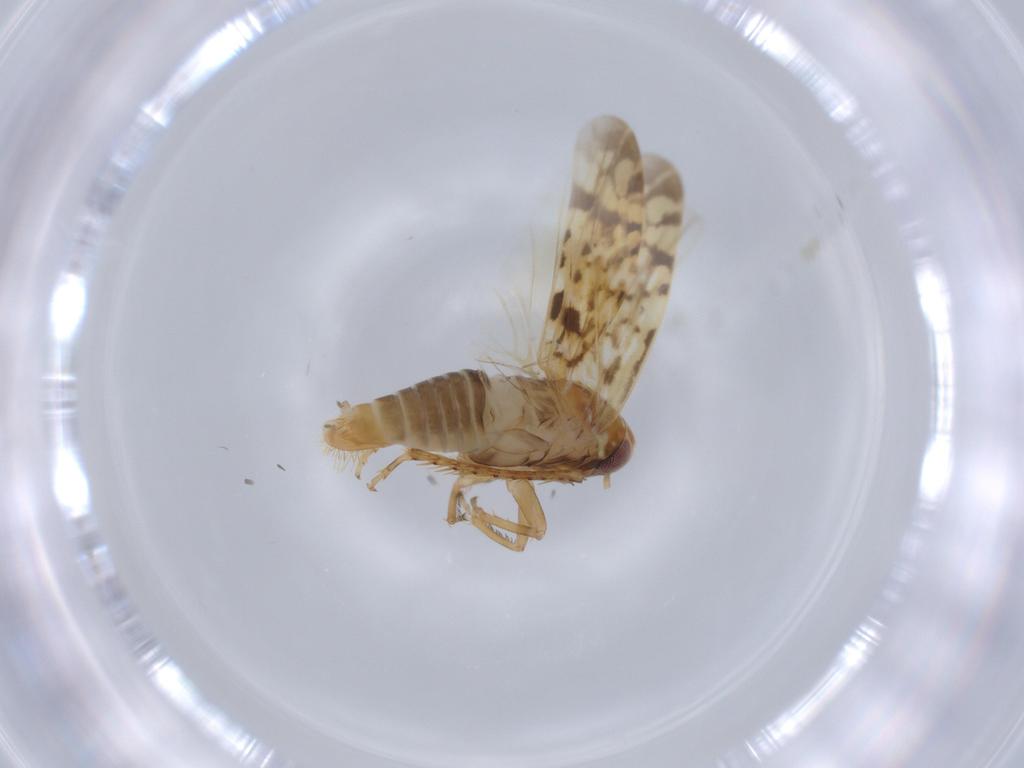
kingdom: Animalia
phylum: Arthropoda
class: Insecta
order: Hemiptera
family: Cicadellidae
